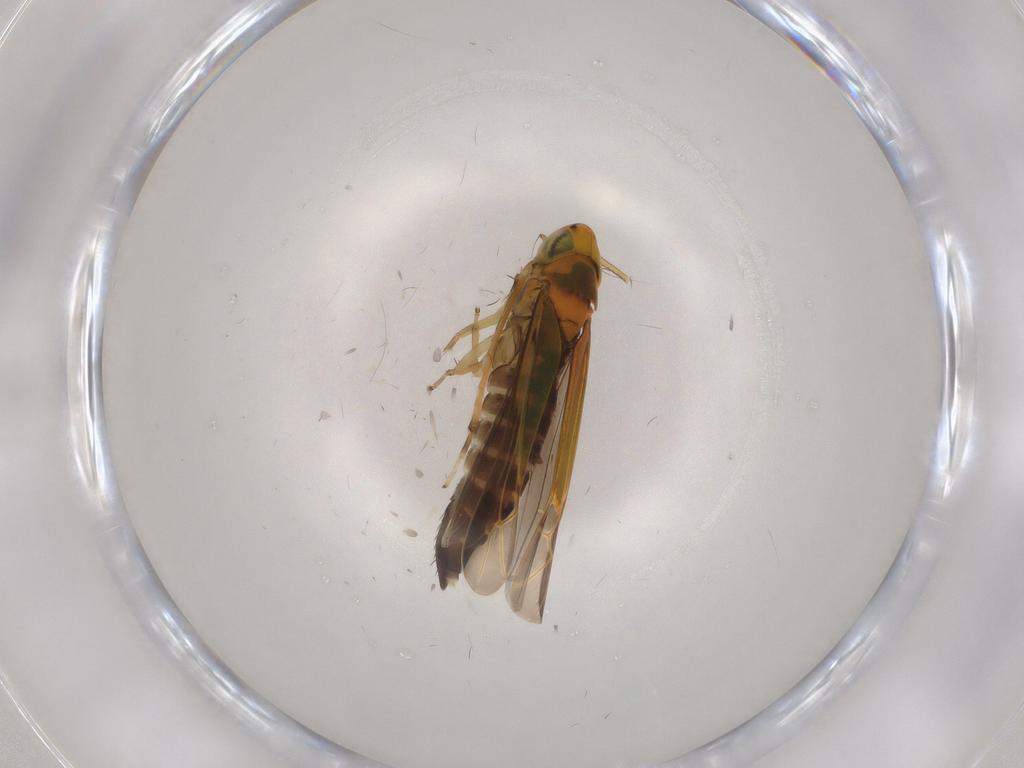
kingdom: Animalia
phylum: Arthropoda
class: Insecta
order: Hemiptera
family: Cicadellidae
